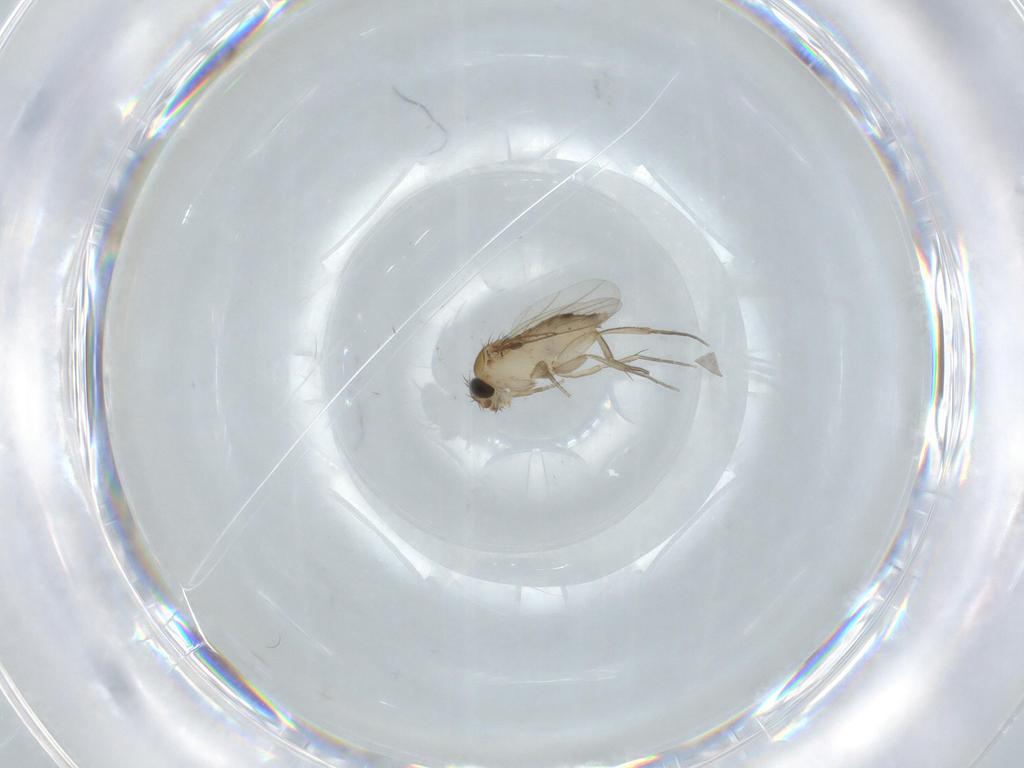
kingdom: Animalia
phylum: Arthropoda
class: Insecta
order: Diptera
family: Phoridae
